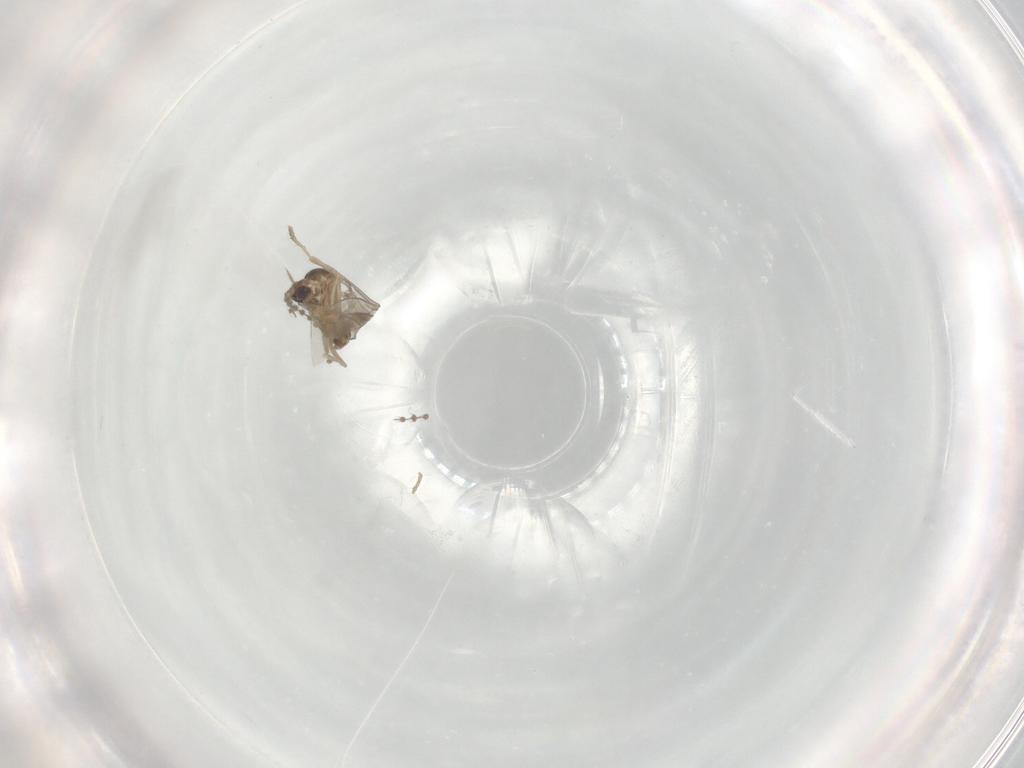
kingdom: Animalia
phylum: Arthropoda
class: Insecta
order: Diptera
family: Cecidomyiidae
